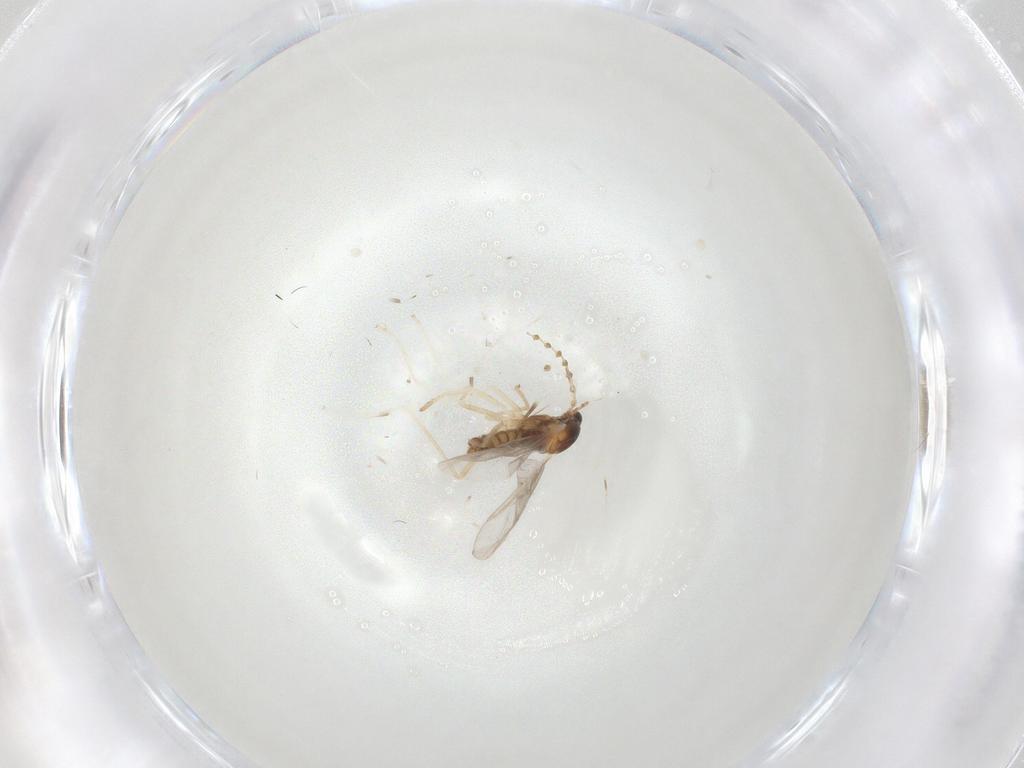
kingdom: Animalia
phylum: Arthropoda
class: Insecta
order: Diptera
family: Cecidomyiidae
